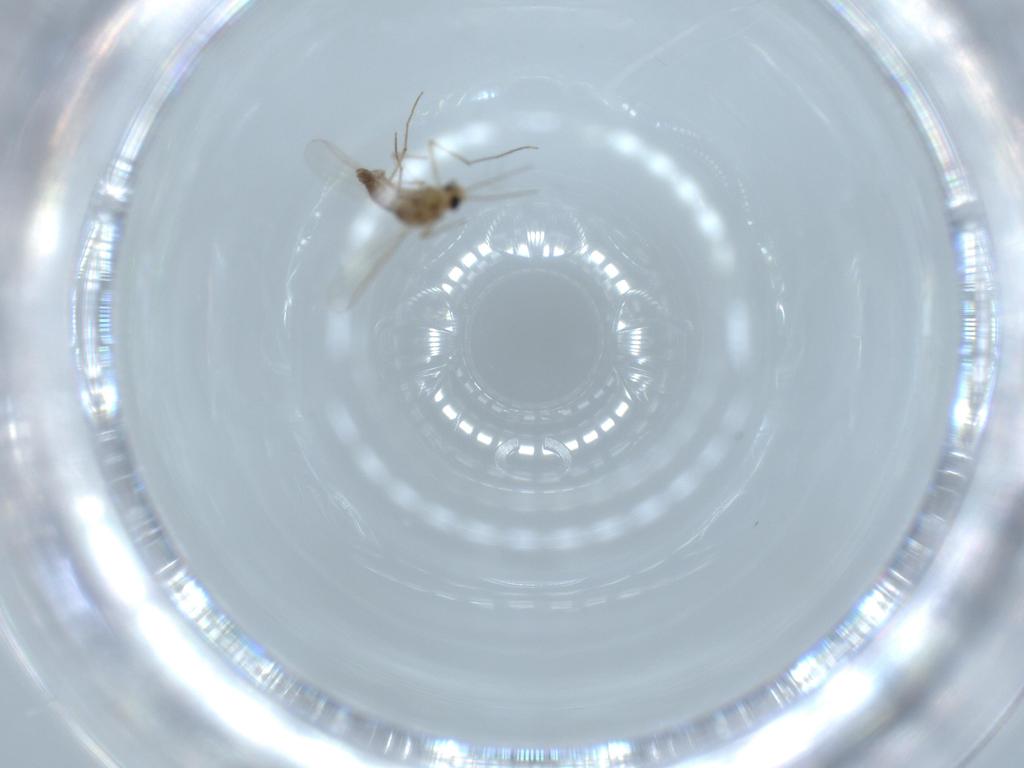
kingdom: Animalia
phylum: Arthropoda
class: Insecta
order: Diptera
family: Chironomidae
